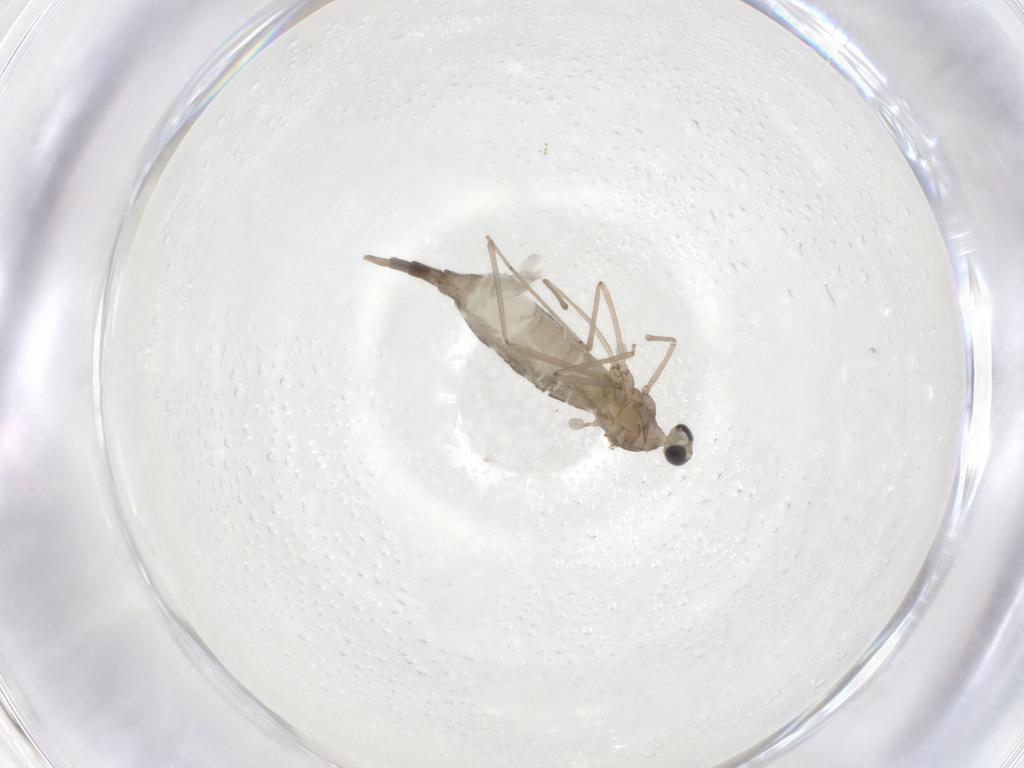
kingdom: Animalia
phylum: Arthropoda
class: Insecta
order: Diptera
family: Cecidomyiidae
